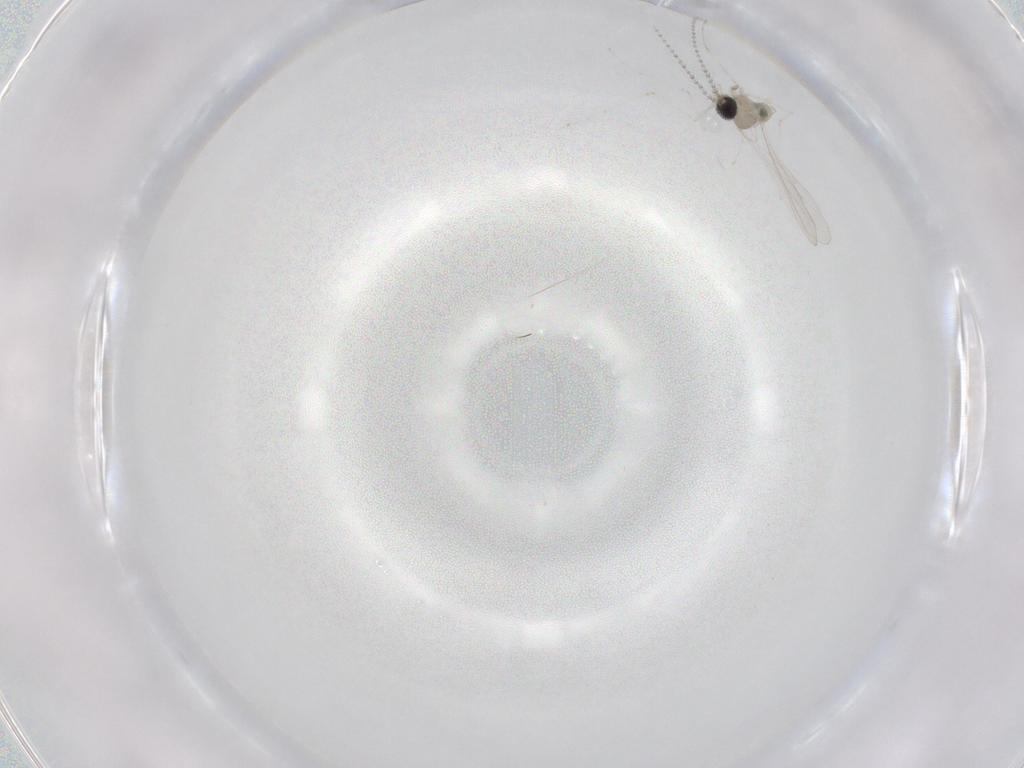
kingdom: Animalia
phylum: Arthropoda
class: Insecta
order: Diptera
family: Cecidomyiidae
